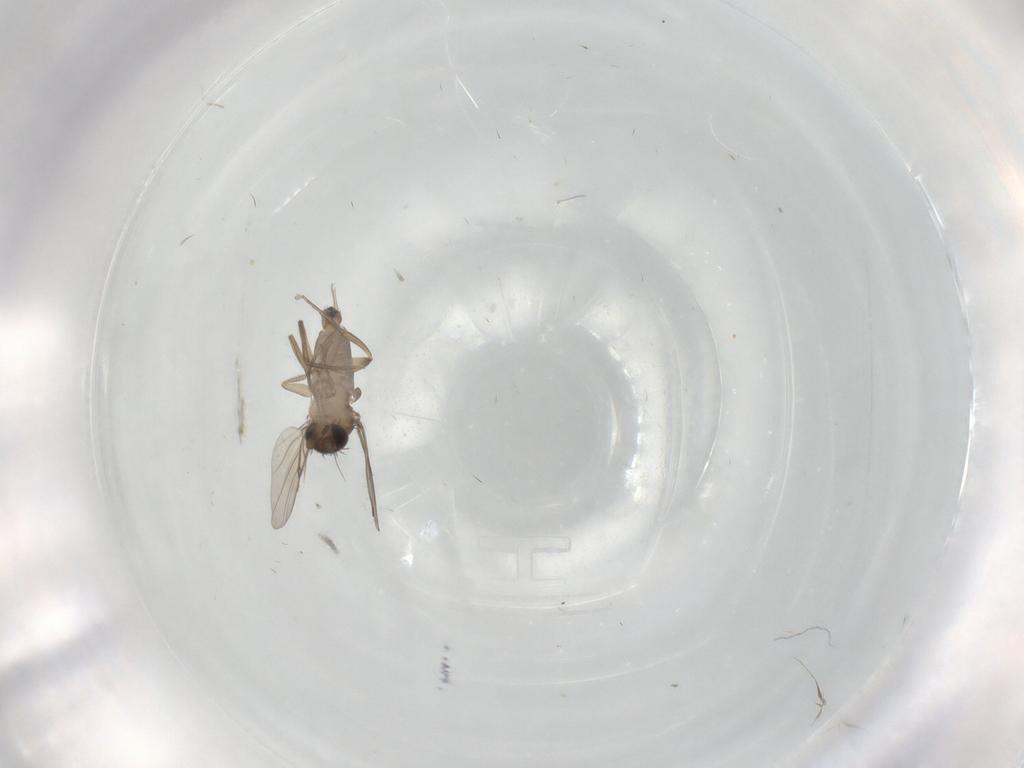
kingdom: Animalia
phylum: Arthropoda
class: Insecta
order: Diptera
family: Phoridae
